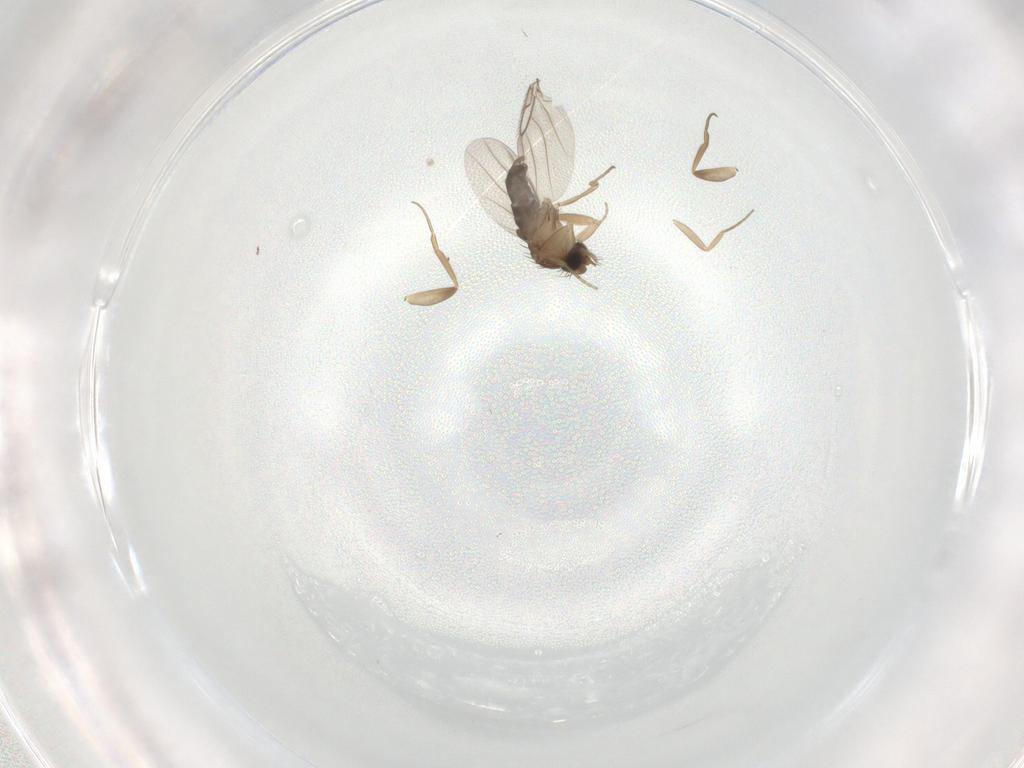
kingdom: Animalia
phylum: Arthropoda
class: Insecta
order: Diptera
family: Phoridae
